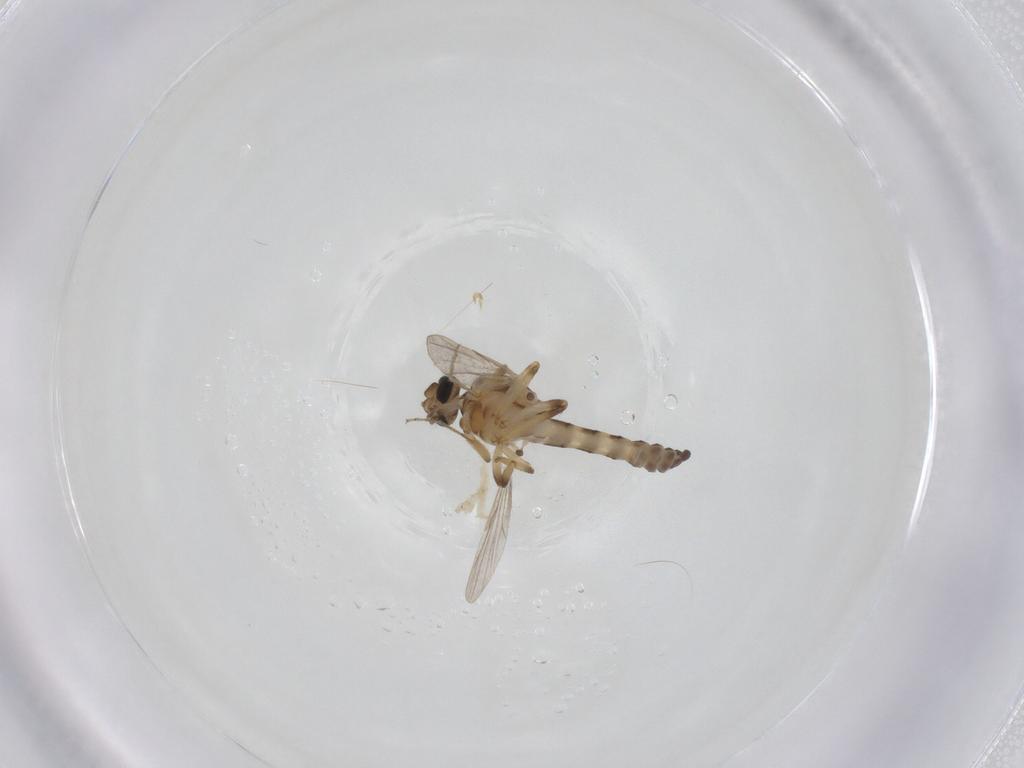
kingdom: Animalia
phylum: Arthropoda
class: Insecta
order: Diptera
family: Ceratopogonidae
